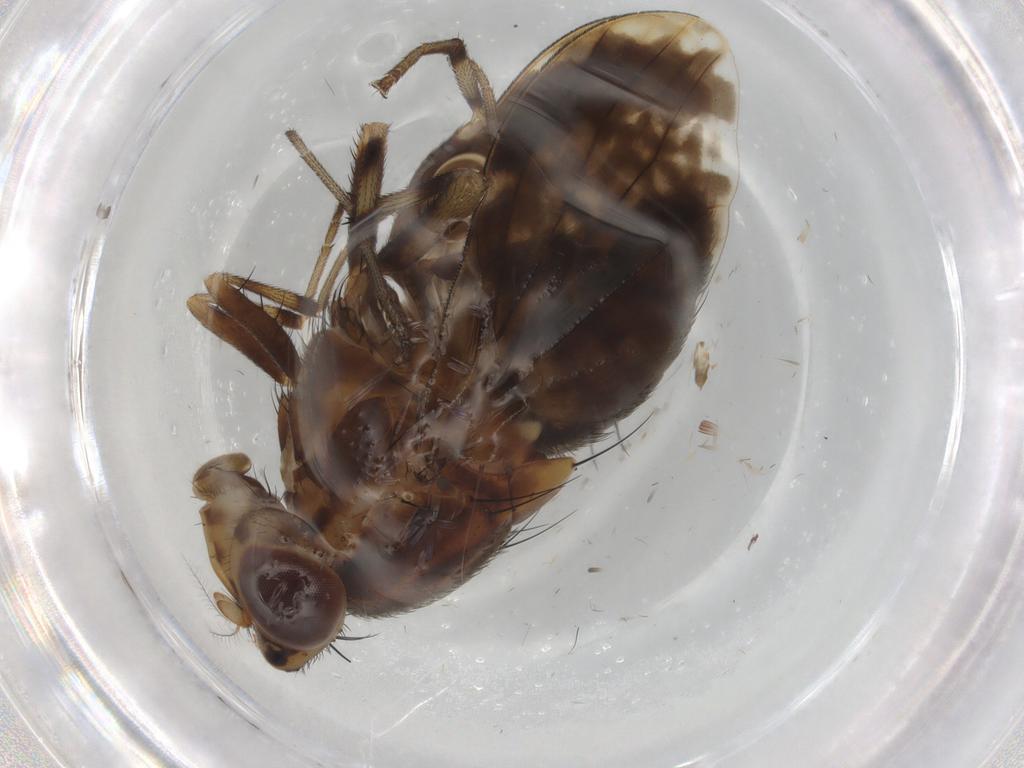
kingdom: Animalia
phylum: Arthropoda
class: Insecta
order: Diptera
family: Lauxaniidae
